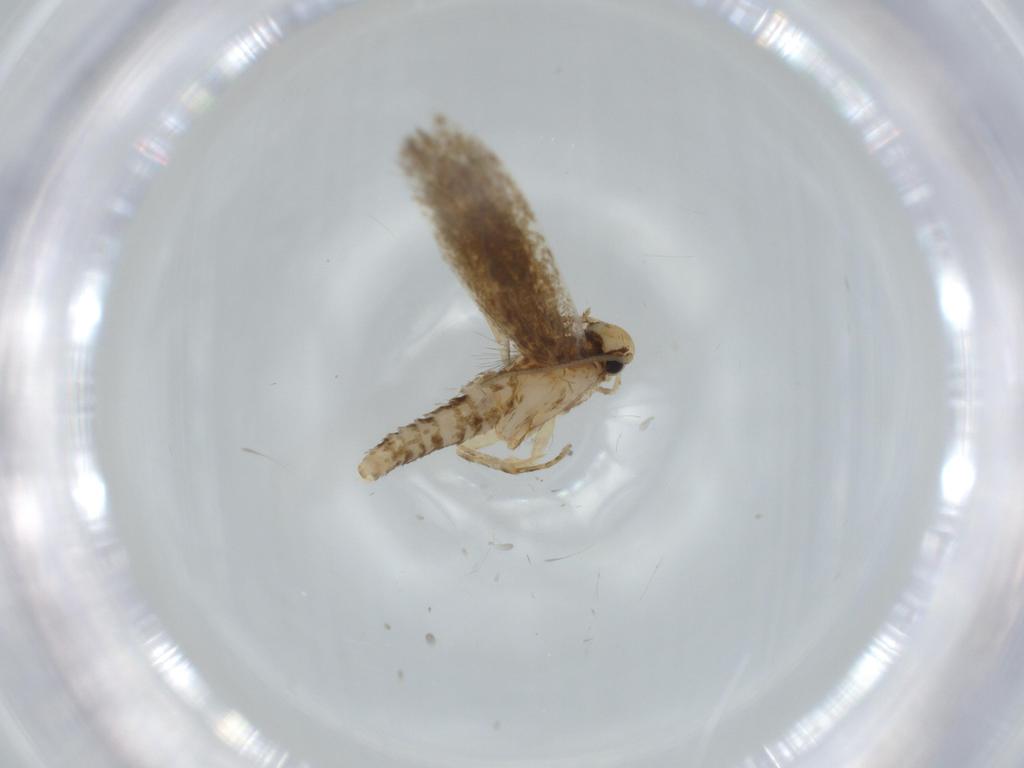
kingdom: Animalia
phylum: Arthropoda
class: Insecta
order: Lepidoptera
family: Tineidae
